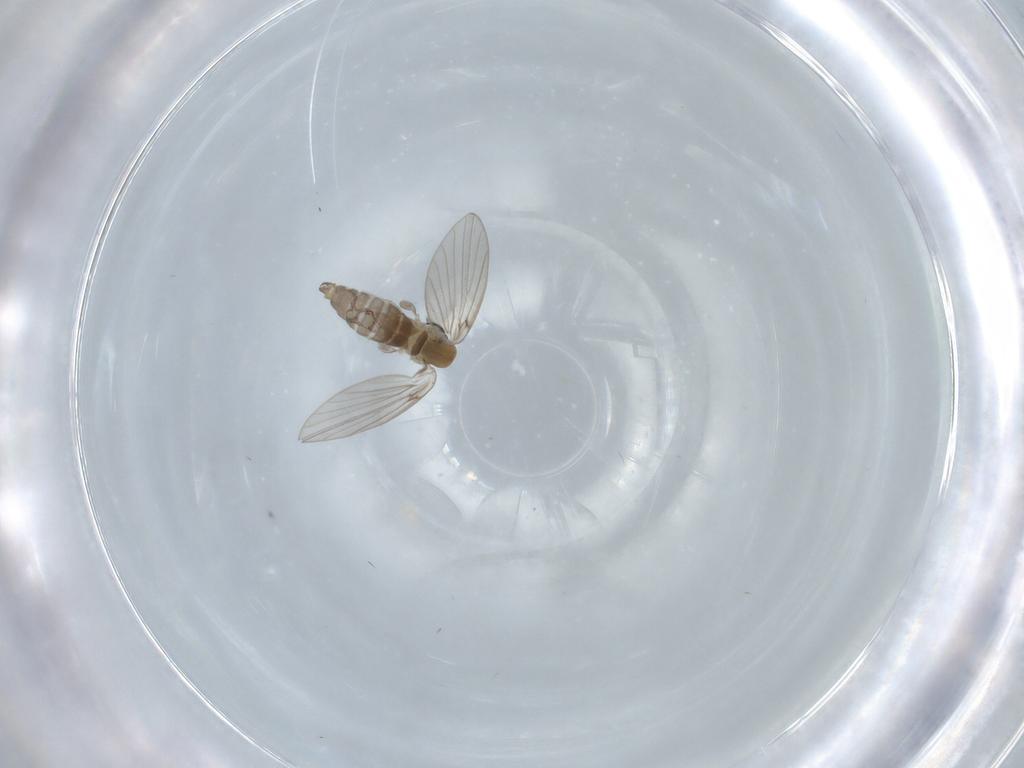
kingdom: Animalia
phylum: Arthropoda
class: Insecta
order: Diptera
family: Psychodidae
